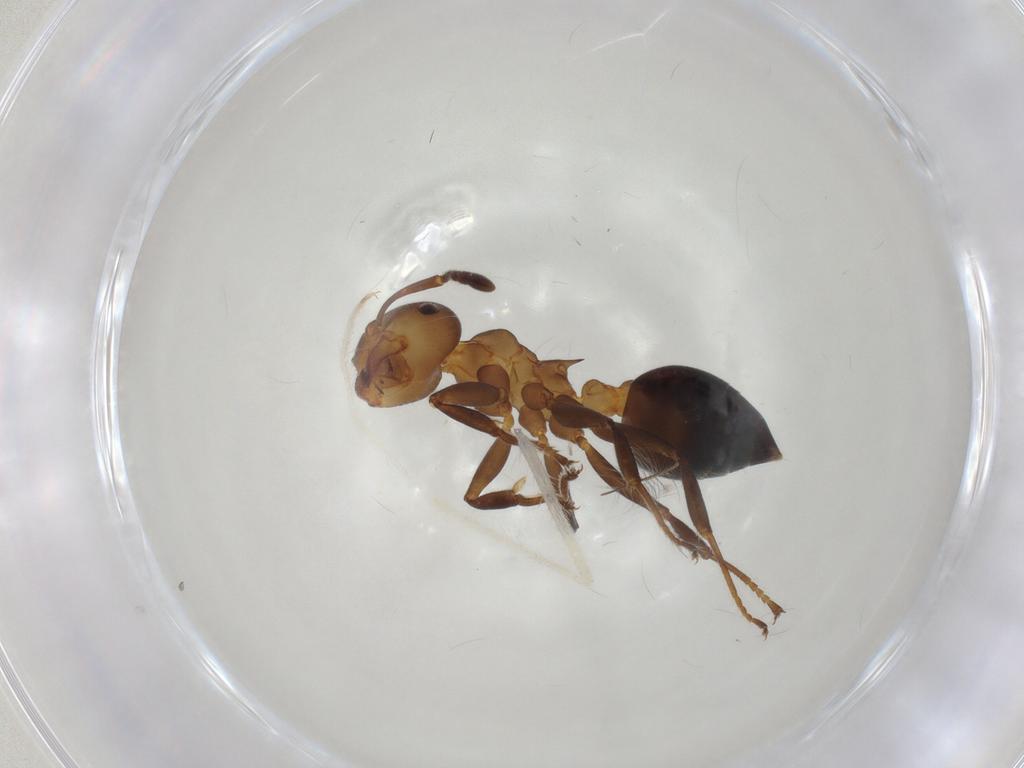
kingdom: Animalia
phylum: Arthropoda
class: Insecta
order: Hymenoptera
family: Formicidae
